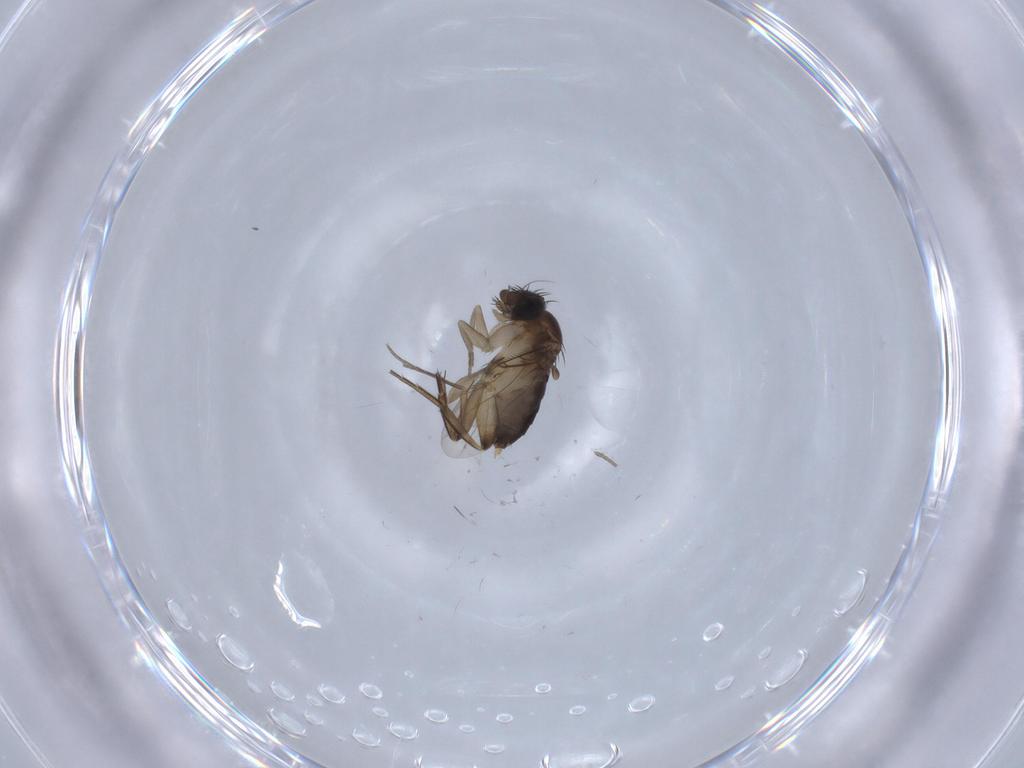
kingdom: Animalia
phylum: Arthropoda
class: Insecta
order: Diptera
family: Phoridae
